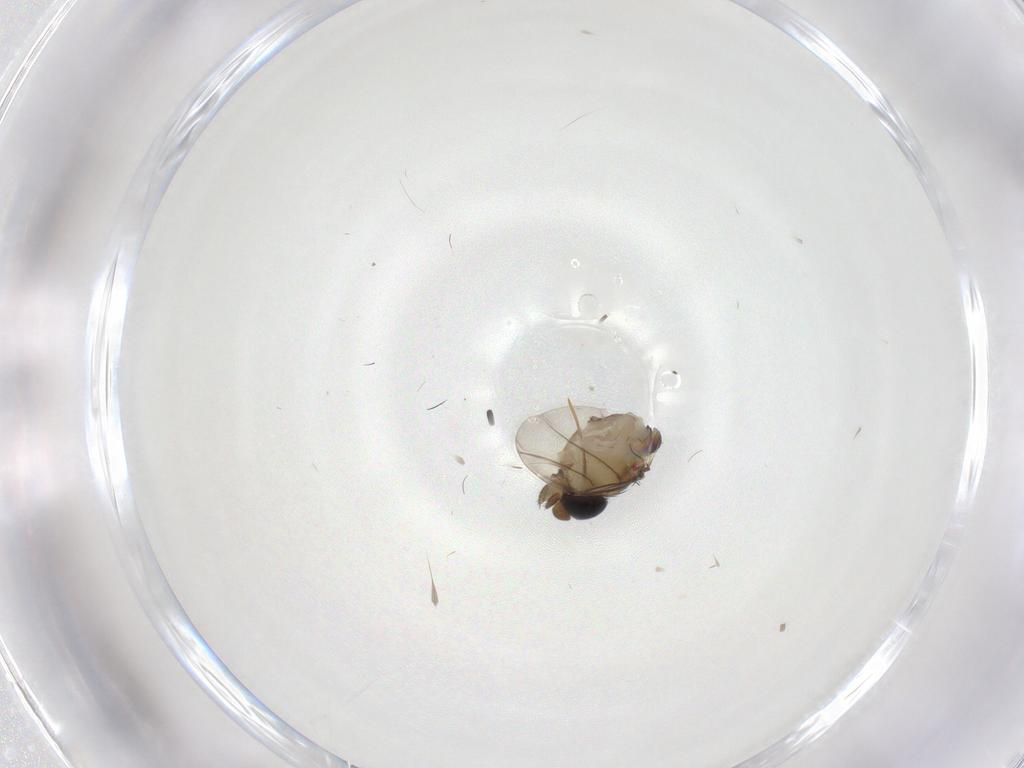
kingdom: Animalia
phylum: Arthropoda
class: Insecta
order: Diptera
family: Phoridae
